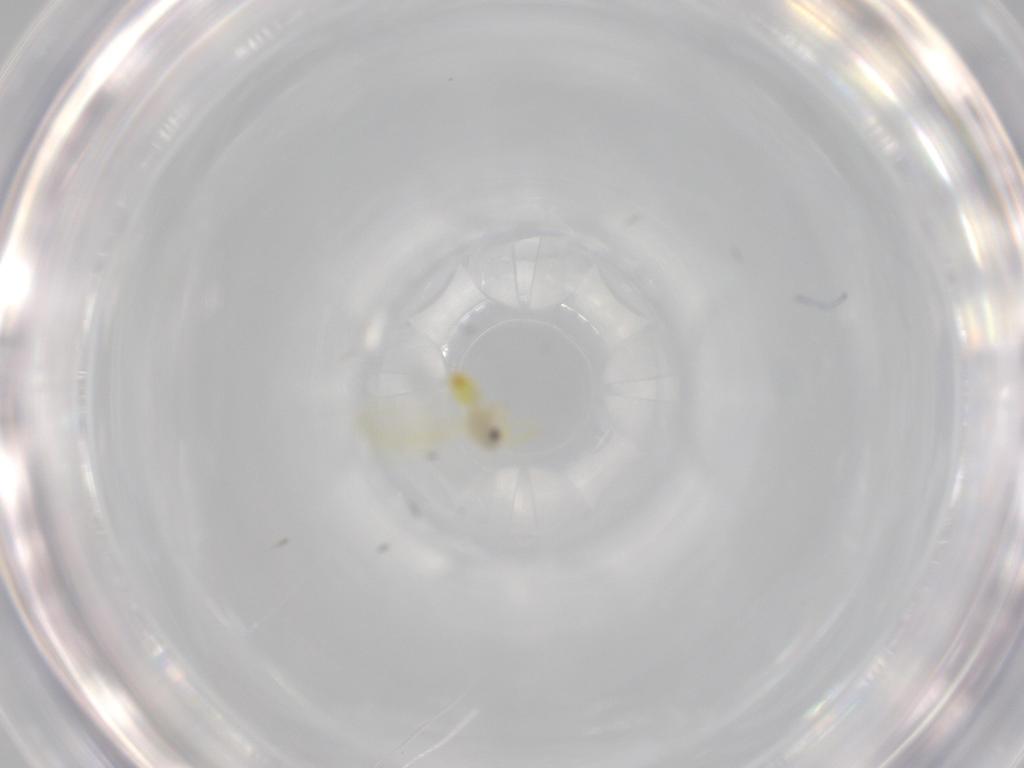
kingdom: Animalia
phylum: Arthropoda
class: Insecta
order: Hemiptera
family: Aleyrodidae
